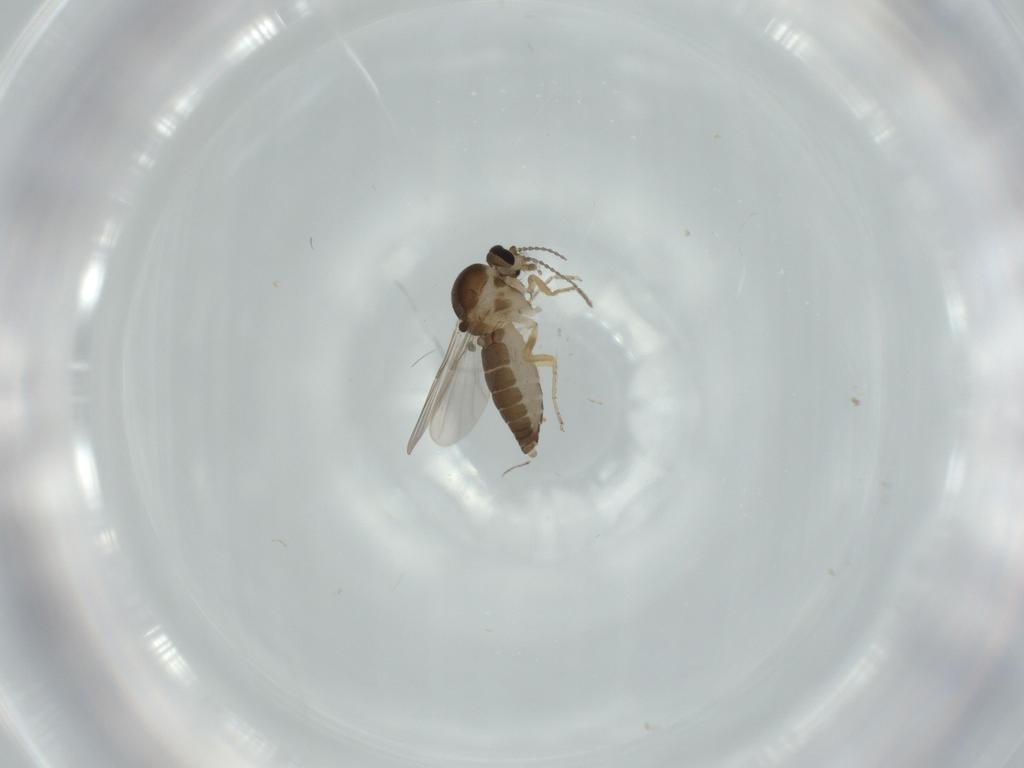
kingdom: Animalia
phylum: Arthropoda
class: Insecta
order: Diptera
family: Ceratopogonidae
